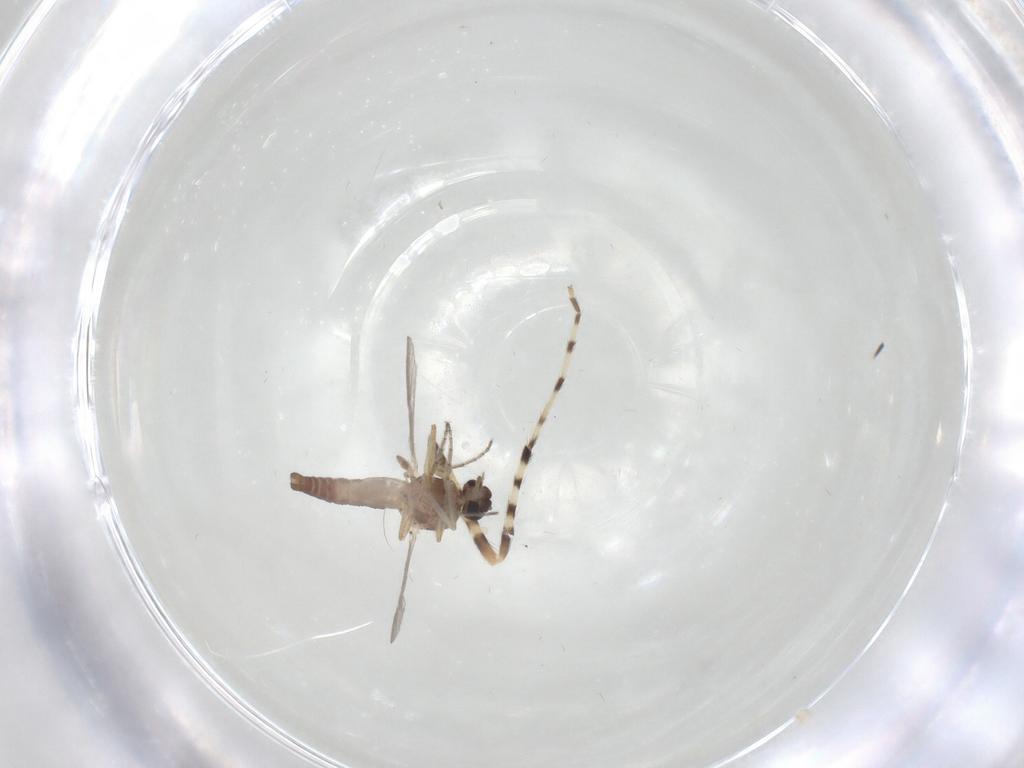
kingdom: Animalia
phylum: Arthropoda
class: Insecta
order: Diptera
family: Ceratopogonidae
